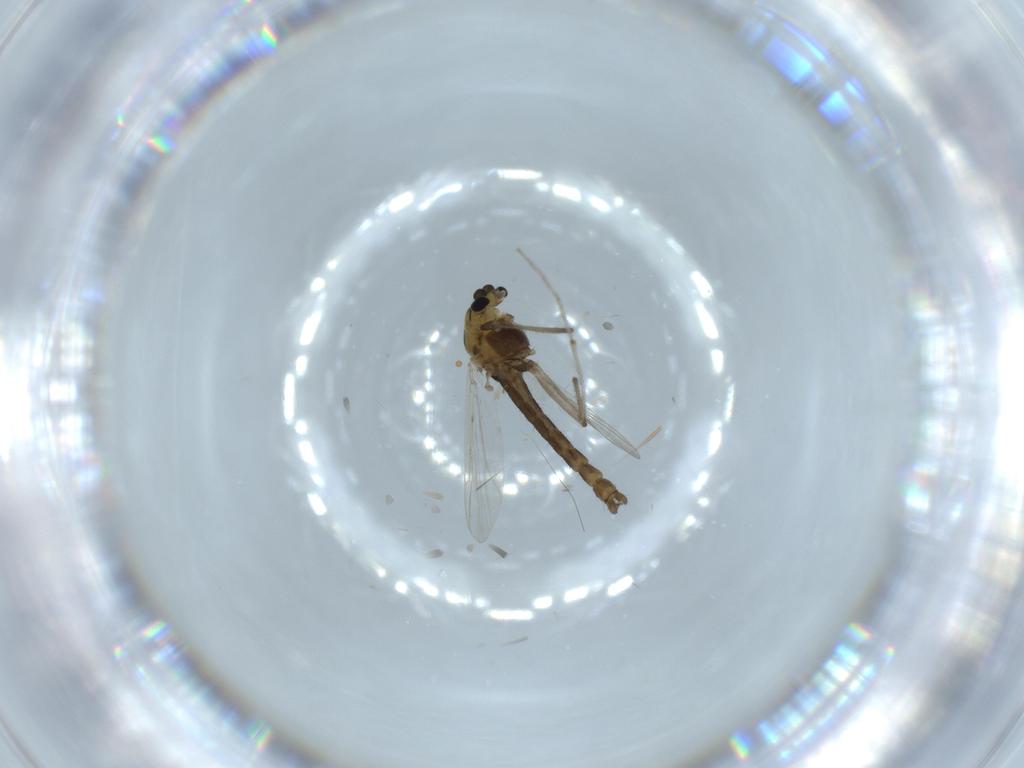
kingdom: Animalia
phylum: Arthropoda
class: Insecta
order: Diptera
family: Chironomidae
